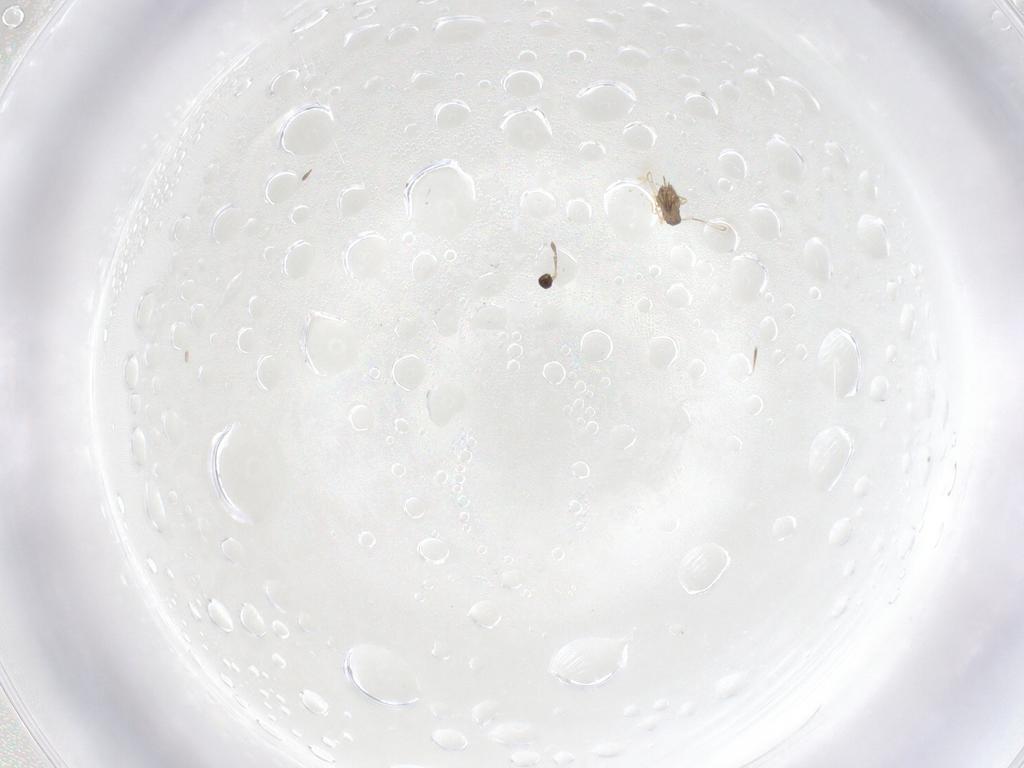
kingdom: Animalia
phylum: Arthropoda
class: Insecta
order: Hymenoptera
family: Mymaridae
